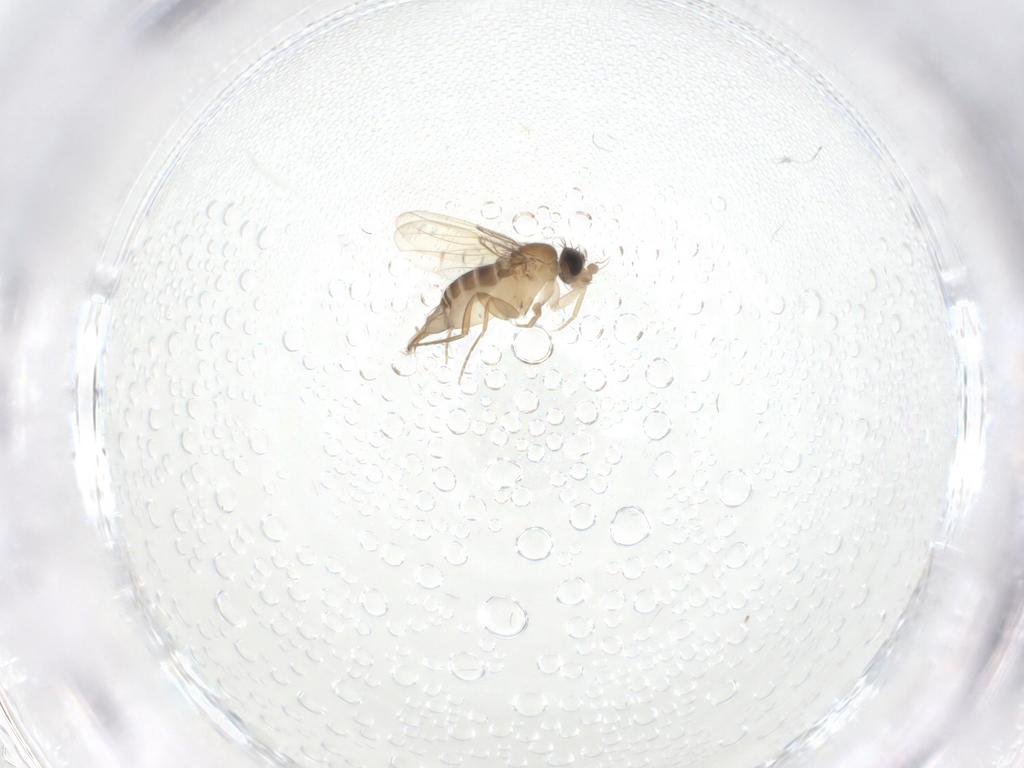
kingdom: Animalia
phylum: Arthropoda
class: Insecta
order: Diptera
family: Phoridae
